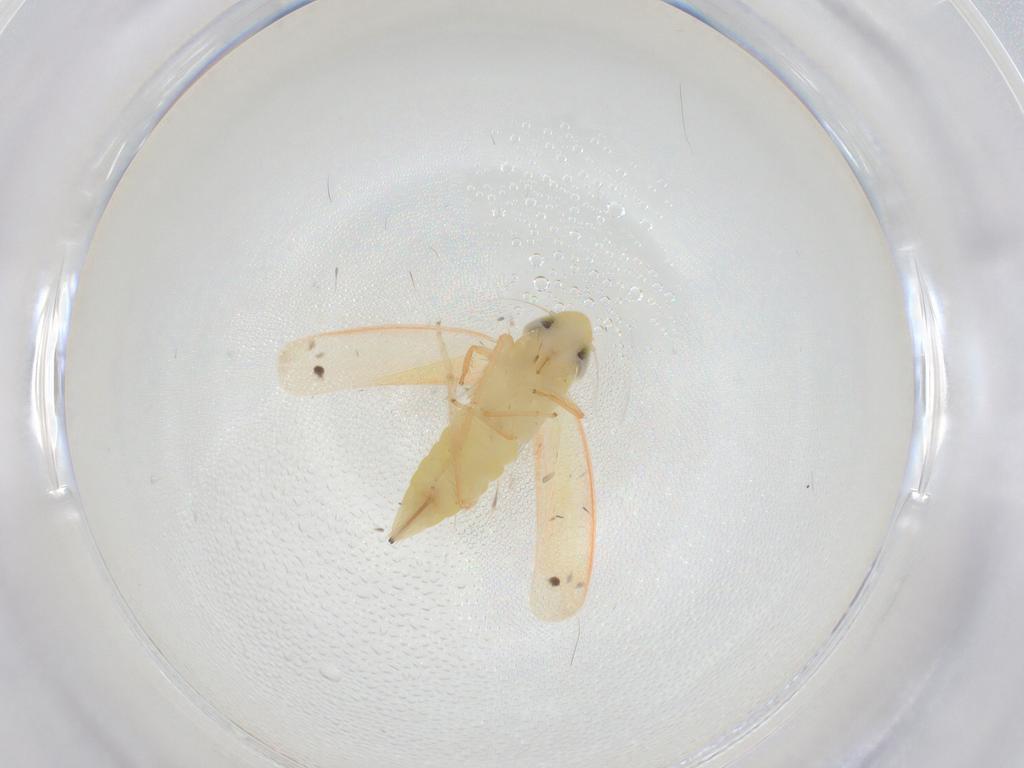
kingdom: Animalia
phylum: Arthropoda
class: Insecta
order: Hemiptera
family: Cicadellidae
